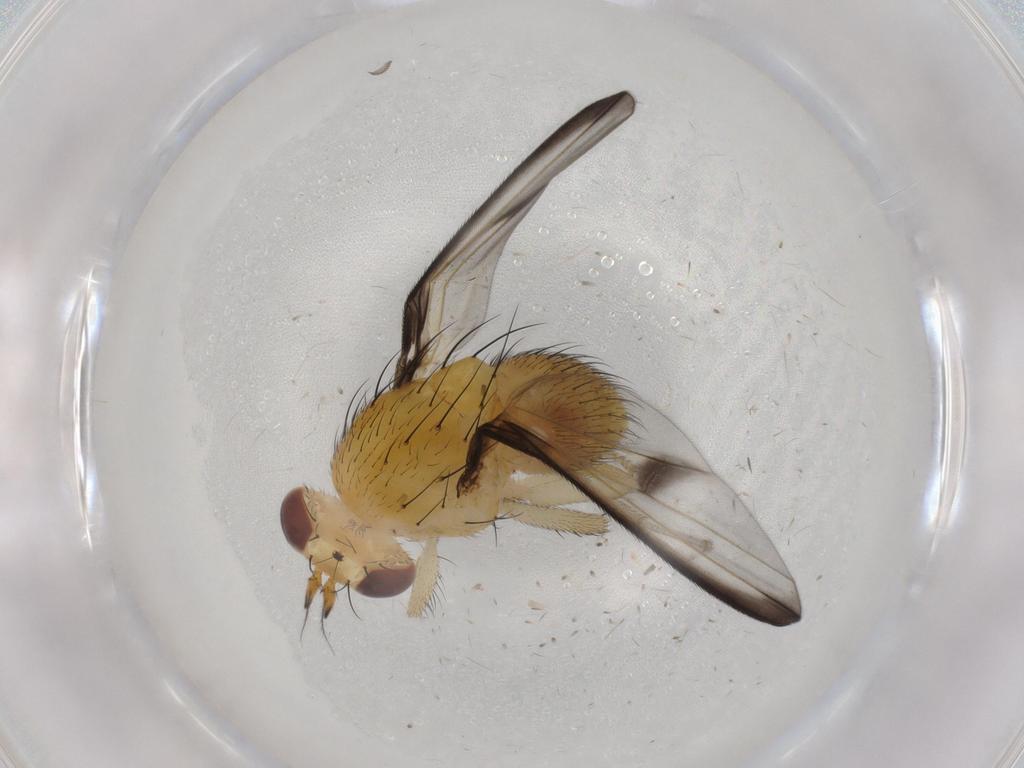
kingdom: Animalia
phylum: Arthropoda
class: Insecta
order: Diptera
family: Lauxaniidae
